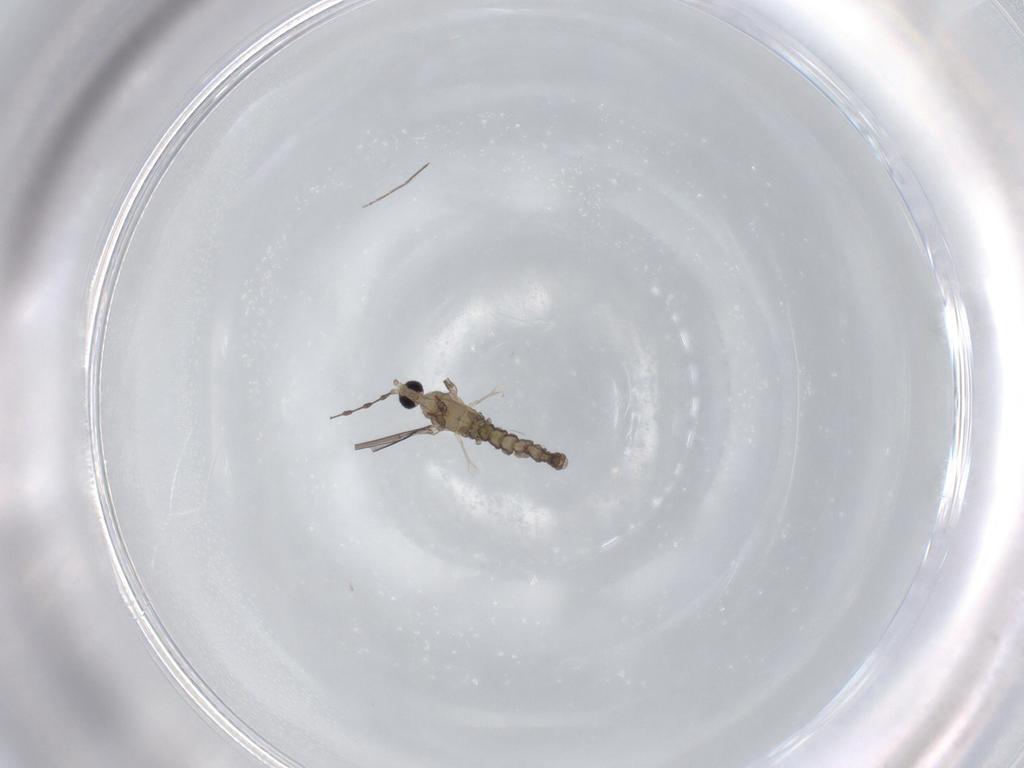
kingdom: Animalia
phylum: Arthropoda
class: Insecta
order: Diptera
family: Cecidomyiidae
